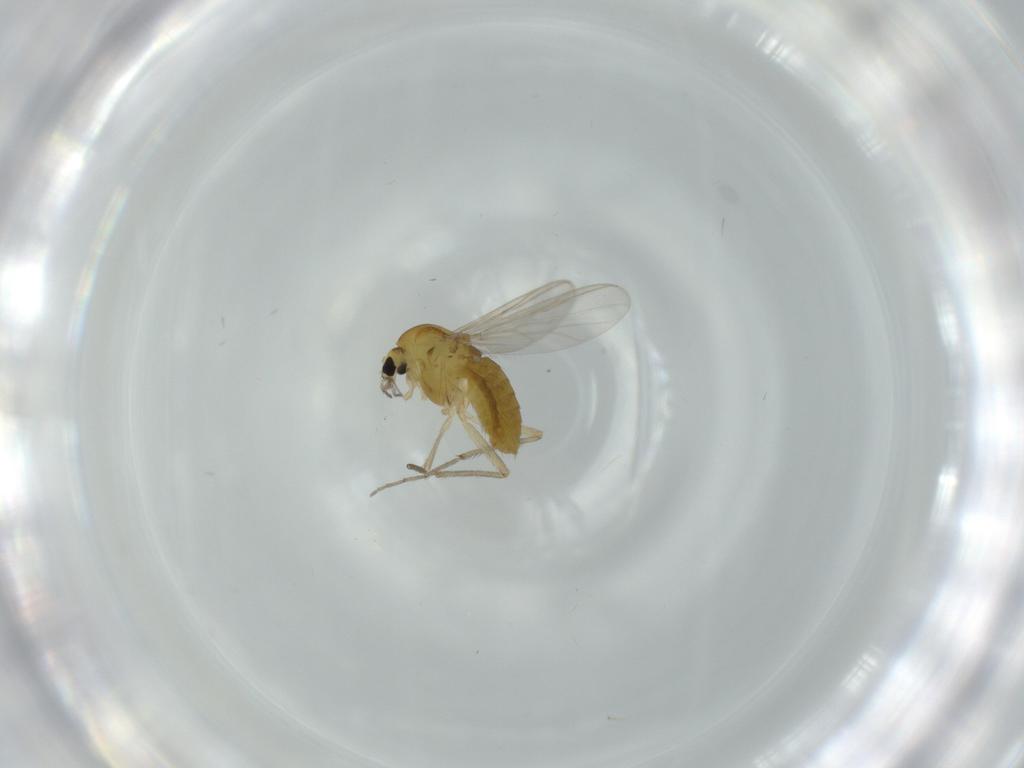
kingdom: Animalia
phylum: Arthropoda
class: Insecta
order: Diptera
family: Chironomidae
